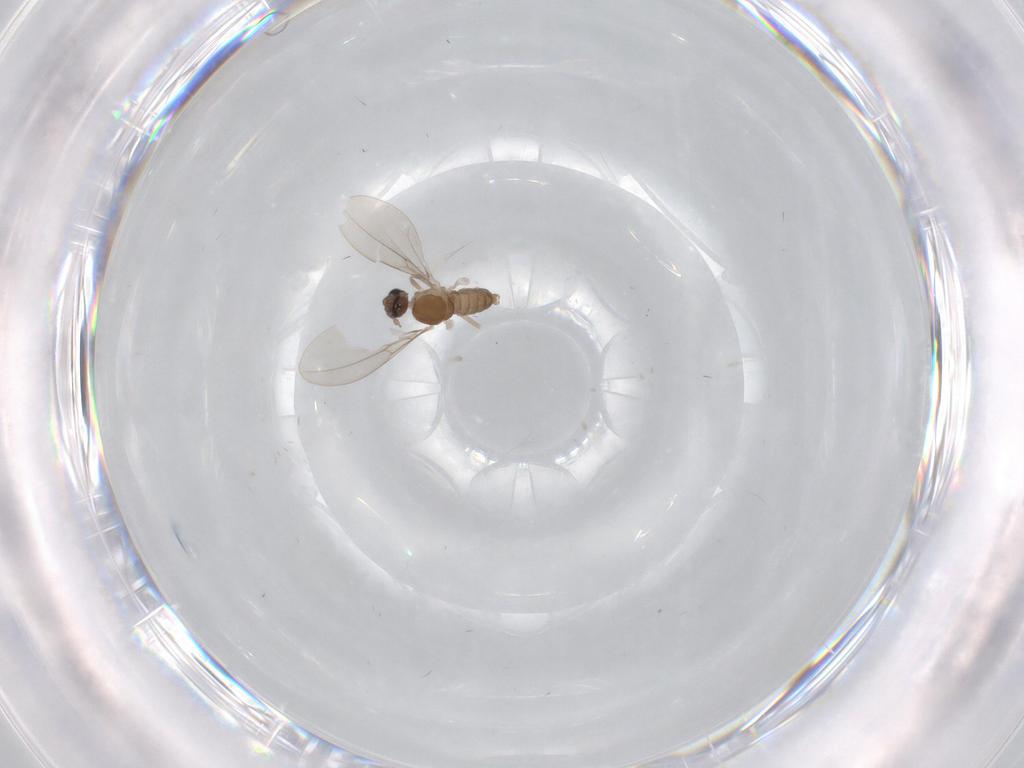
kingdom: Animalia
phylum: Arthropoda
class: Insecta
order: Diptera
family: Cecidomyiidae
